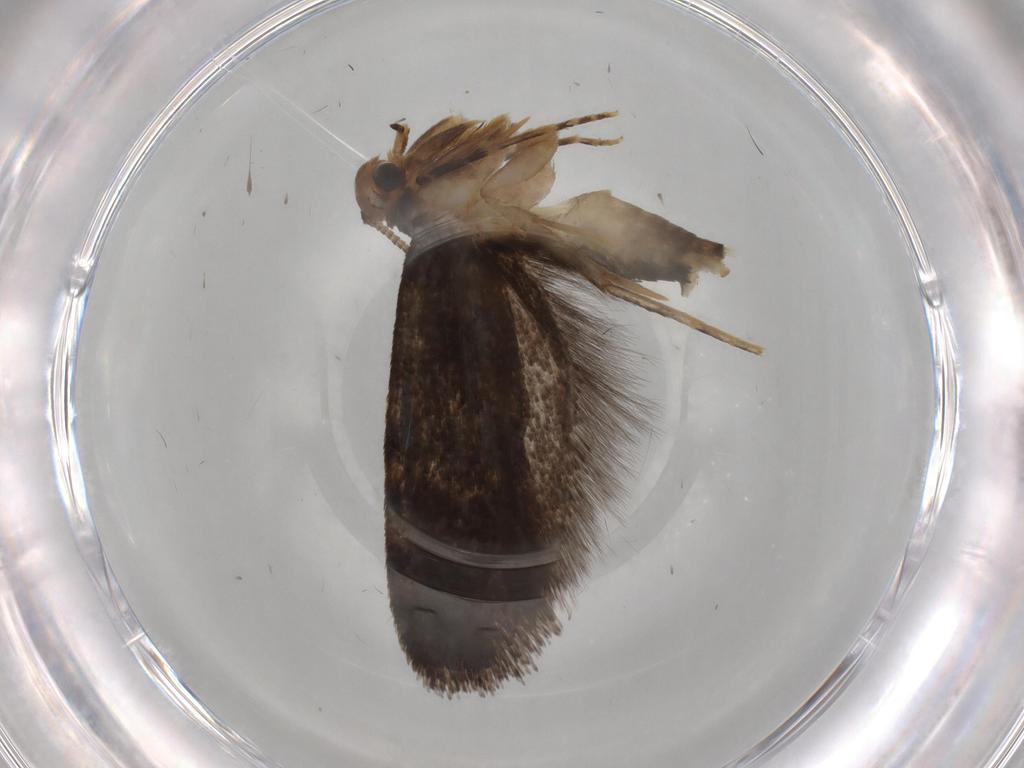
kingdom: Animalia
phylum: Arthropoda
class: Insecta
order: Lepidoptera
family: Tineidae
